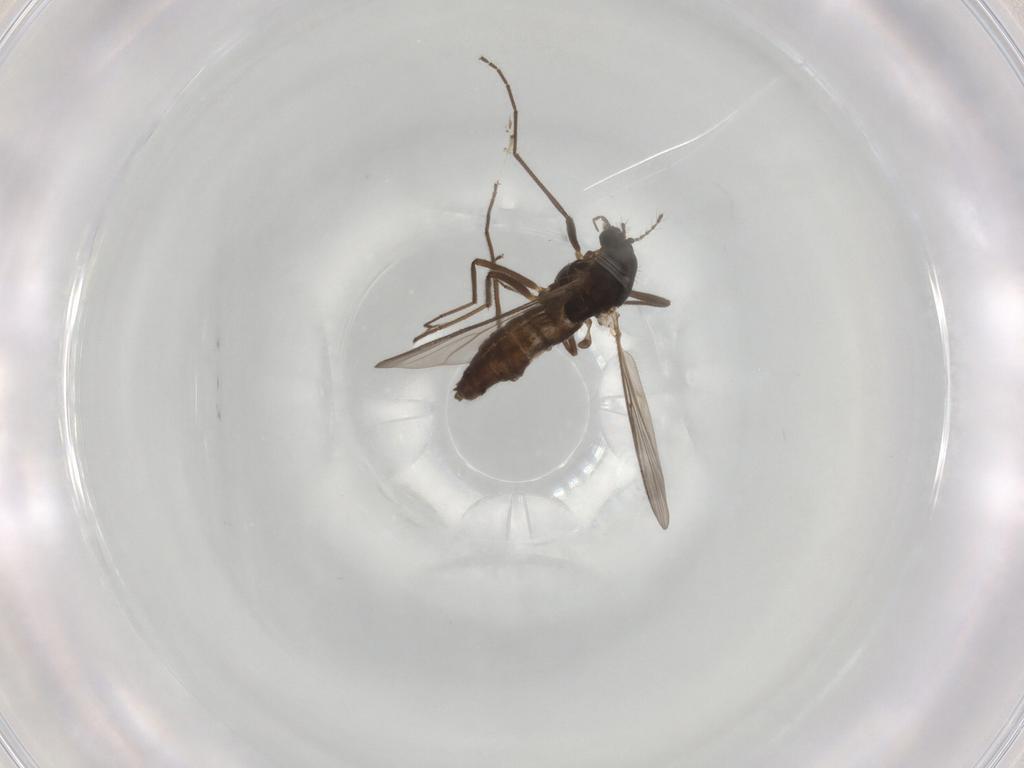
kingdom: Animalia
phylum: Arthropoda
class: Insecta
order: Diptera
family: Chironomidae
